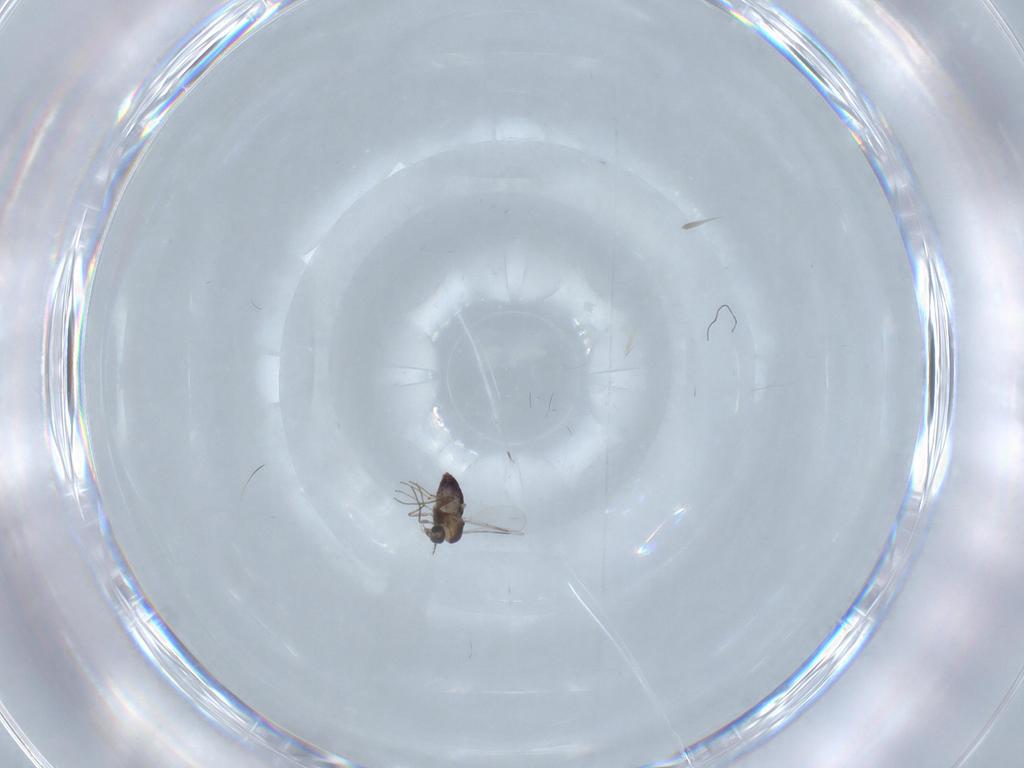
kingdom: Animalia
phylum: Arthropoda
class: Insecta
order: Diptera
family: Chironomidae
